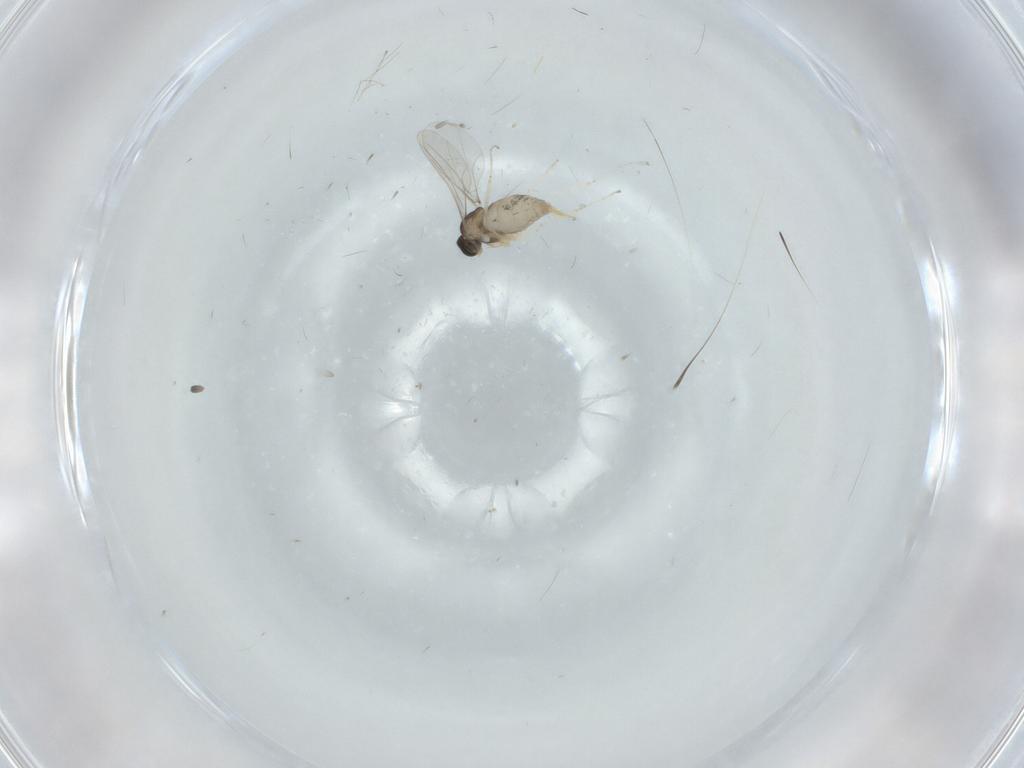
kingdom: Animalia
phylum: Arthropoda
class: Insecta
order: Diptera
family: Cecidomyiidae
